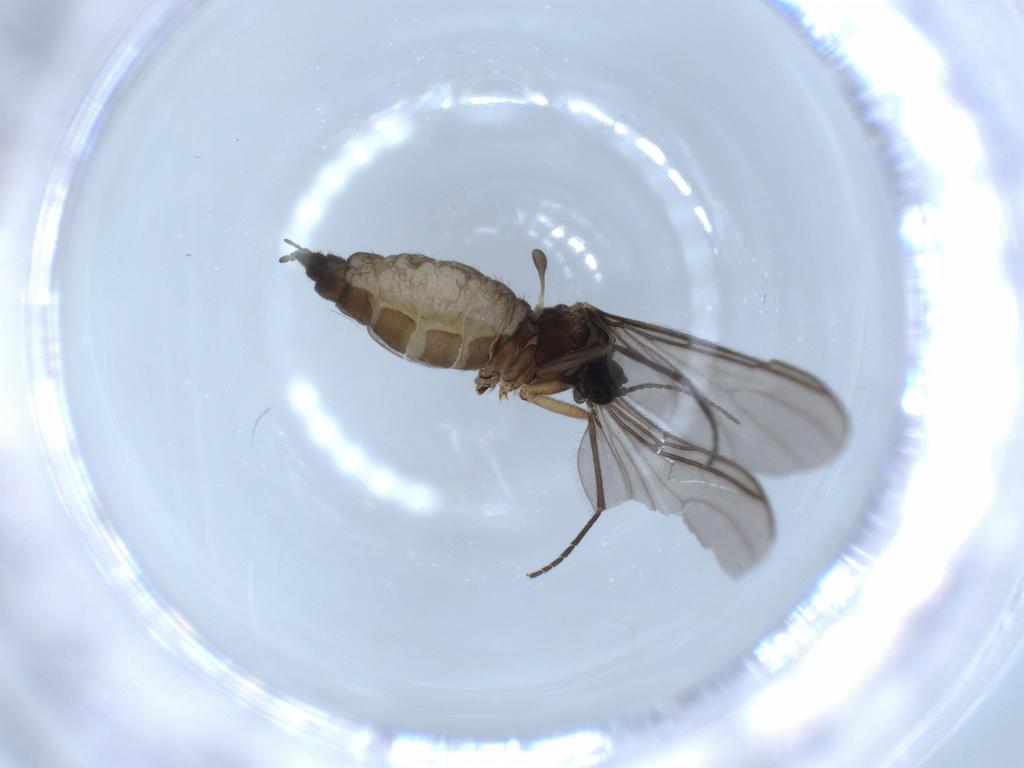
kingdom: Animalia
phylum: Arthropoda
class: Insecta
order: Diptera
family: Sciaridae
